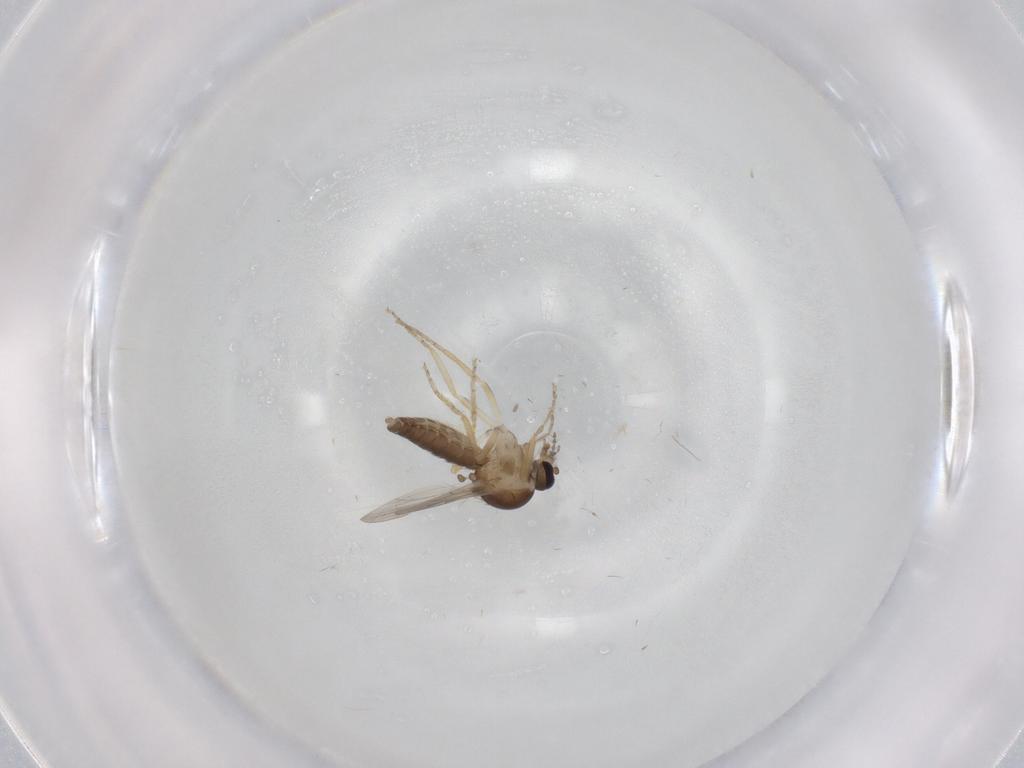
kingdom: Animalia
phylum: Arthropoda
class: Insecta
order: Diptera
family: Ceratopogonidae
